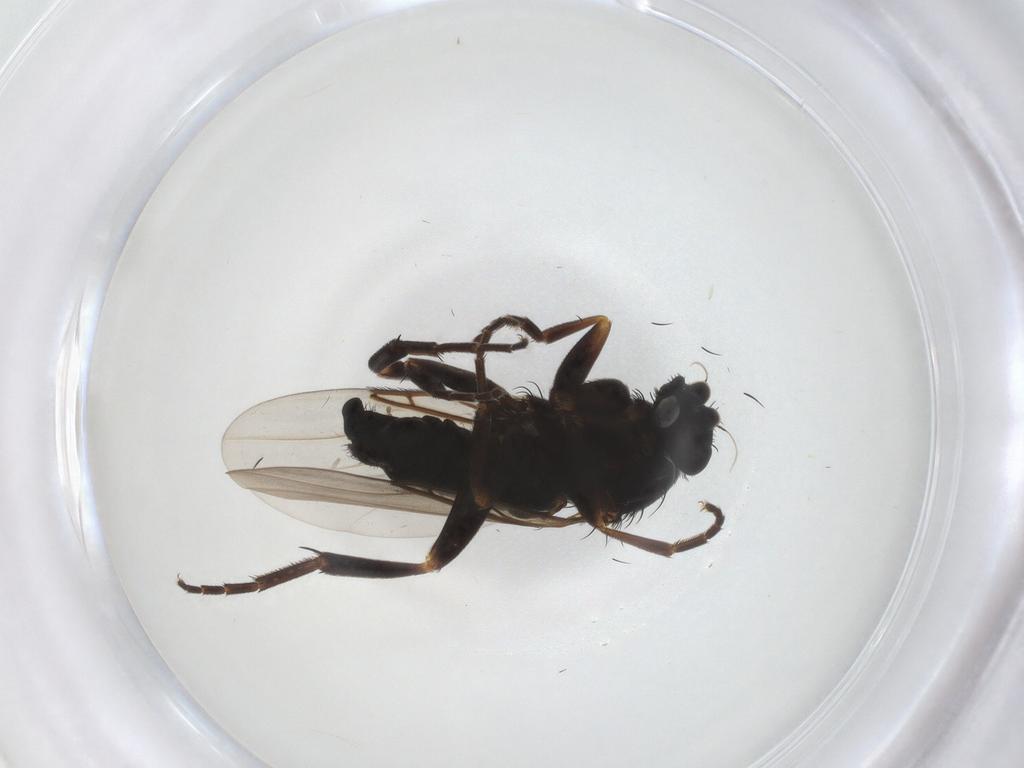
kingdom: Animalia
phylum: Arthropoda
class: Insecta
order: Diptera
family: Phoridae
